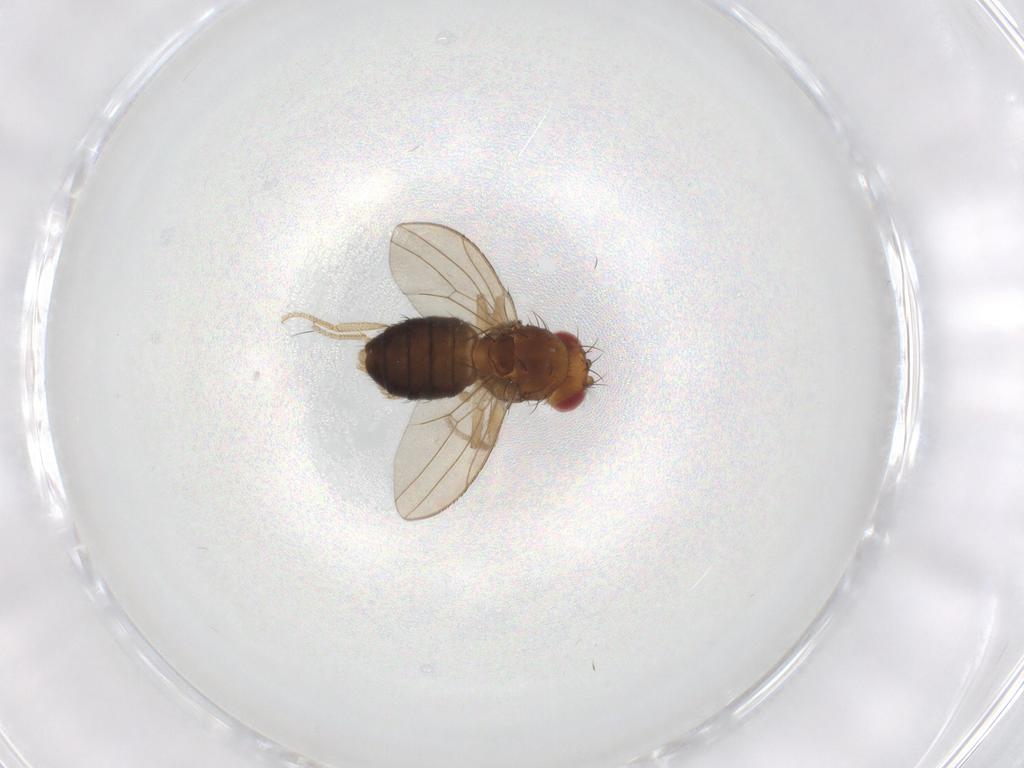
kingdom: Animalia
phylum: Arthropoda
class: Insecta
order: Diptera
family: Drosophilidae
